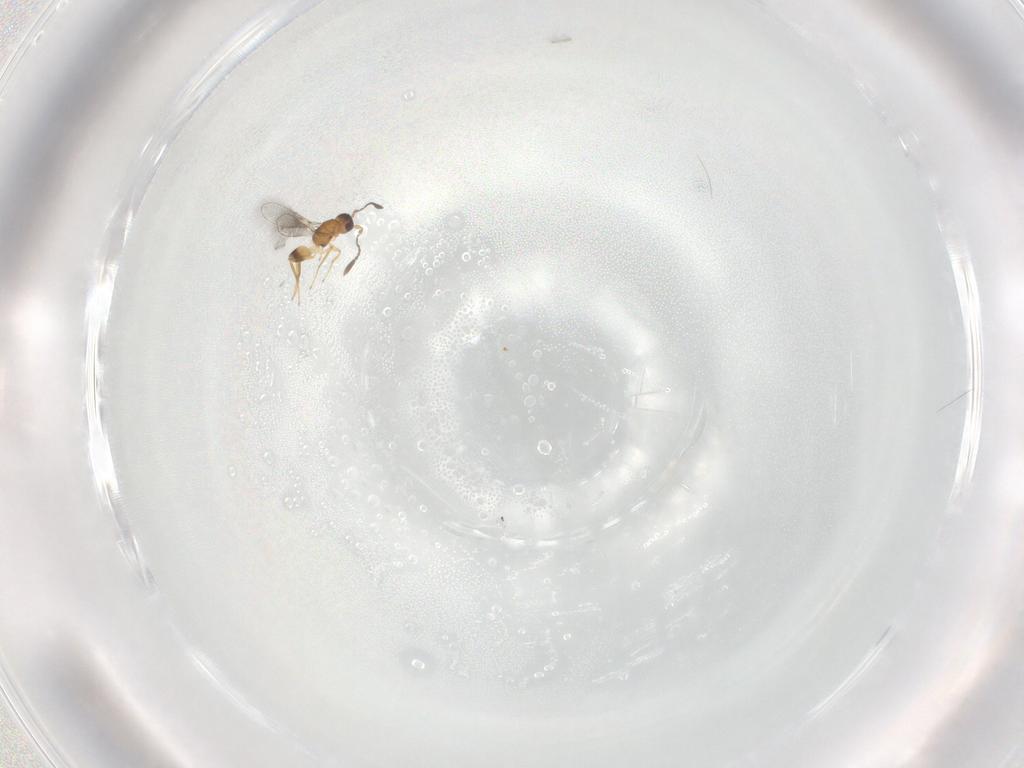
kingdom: Animalia
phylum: Arthropoda
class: Insecta
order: Hymenoptera
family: Mymaridae
